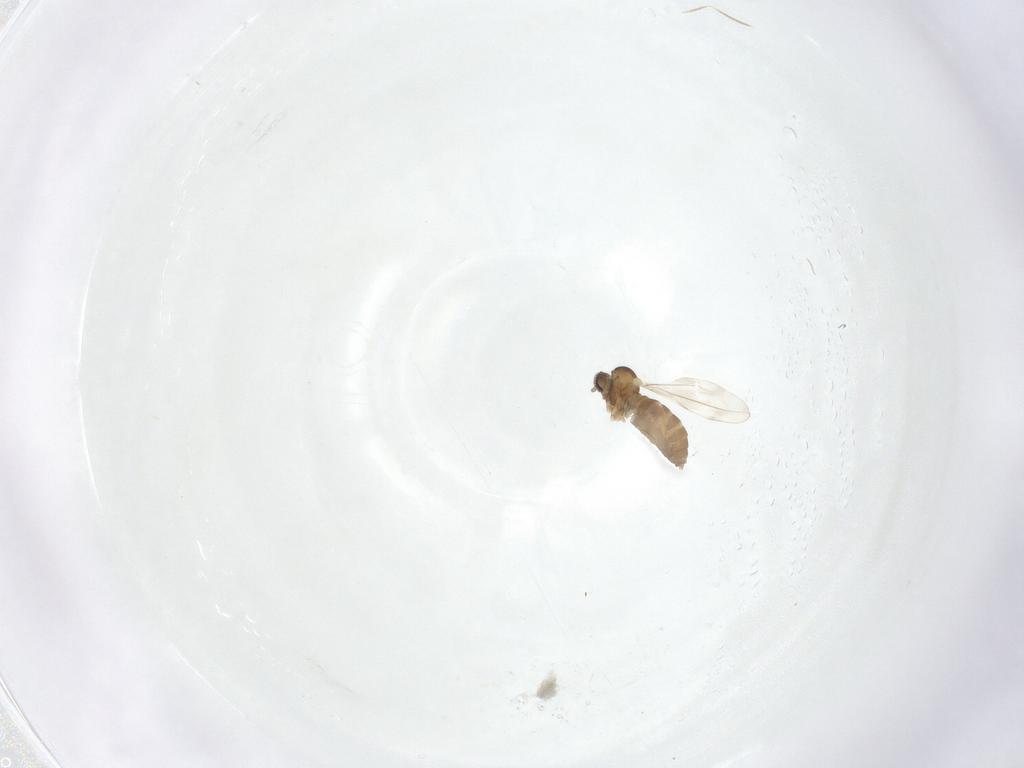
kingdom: Animalia
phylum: Arthropoda
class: Insecta
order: Diptera
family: Cecidomyiidae
